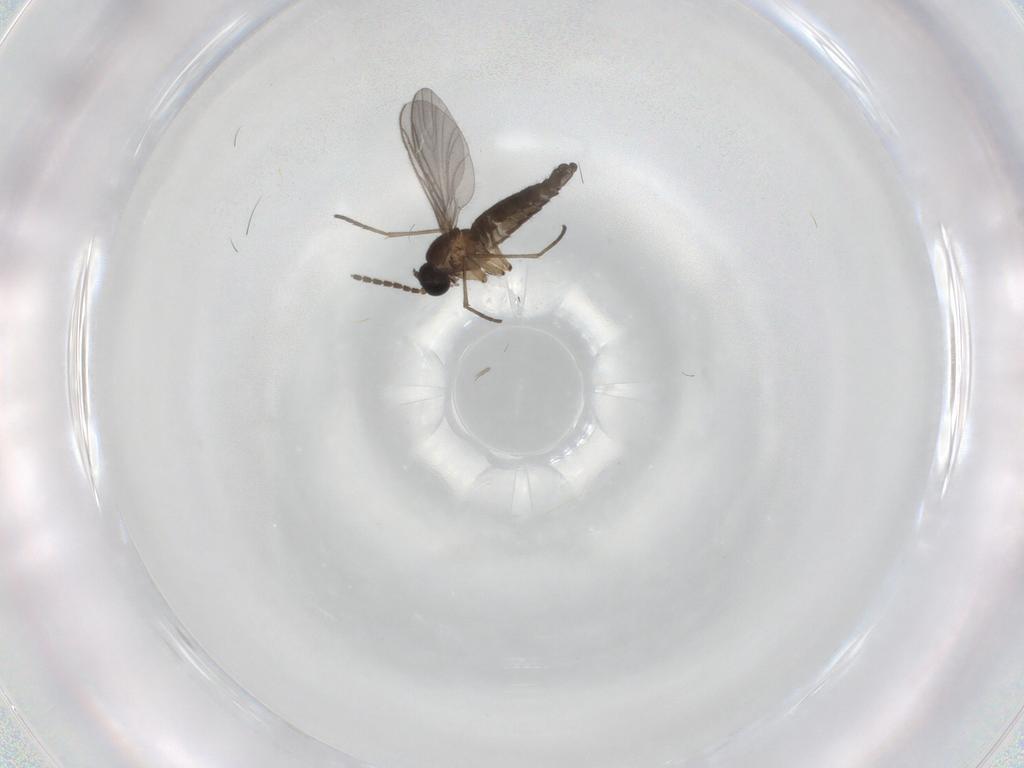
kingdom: Animalia
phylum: Arthropoda
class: Insecta
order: Diptera
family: Sciaridae
